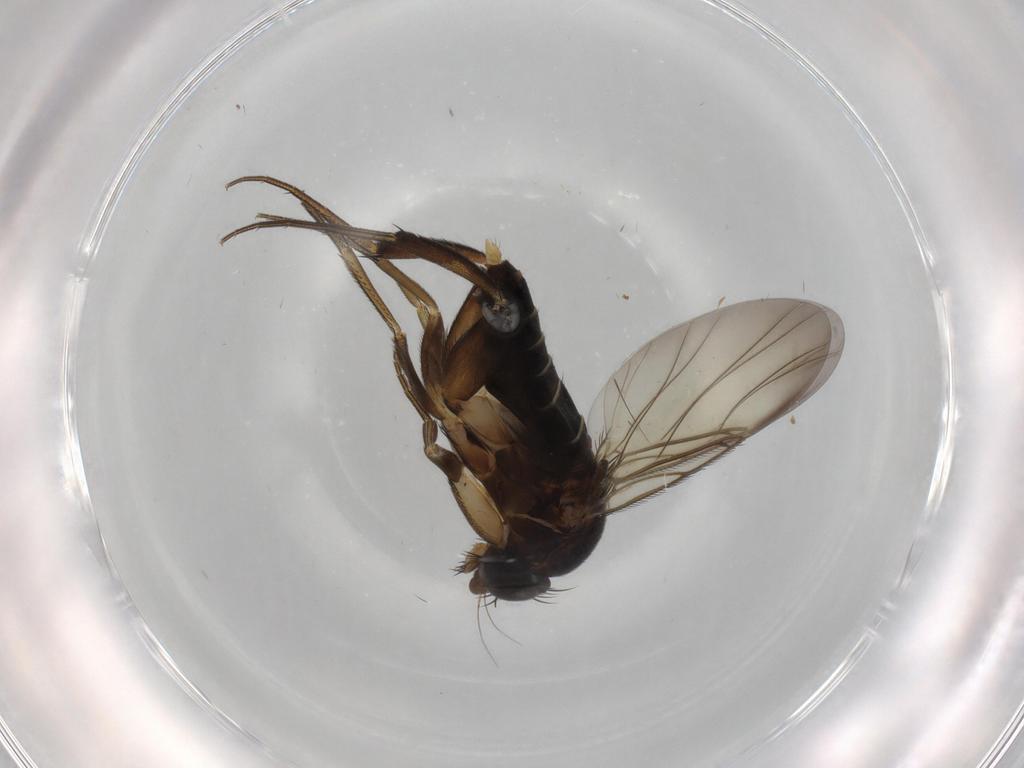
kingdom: Animalia
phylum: Arthropoda
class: Insecta
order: Diptera
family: Phoridae
